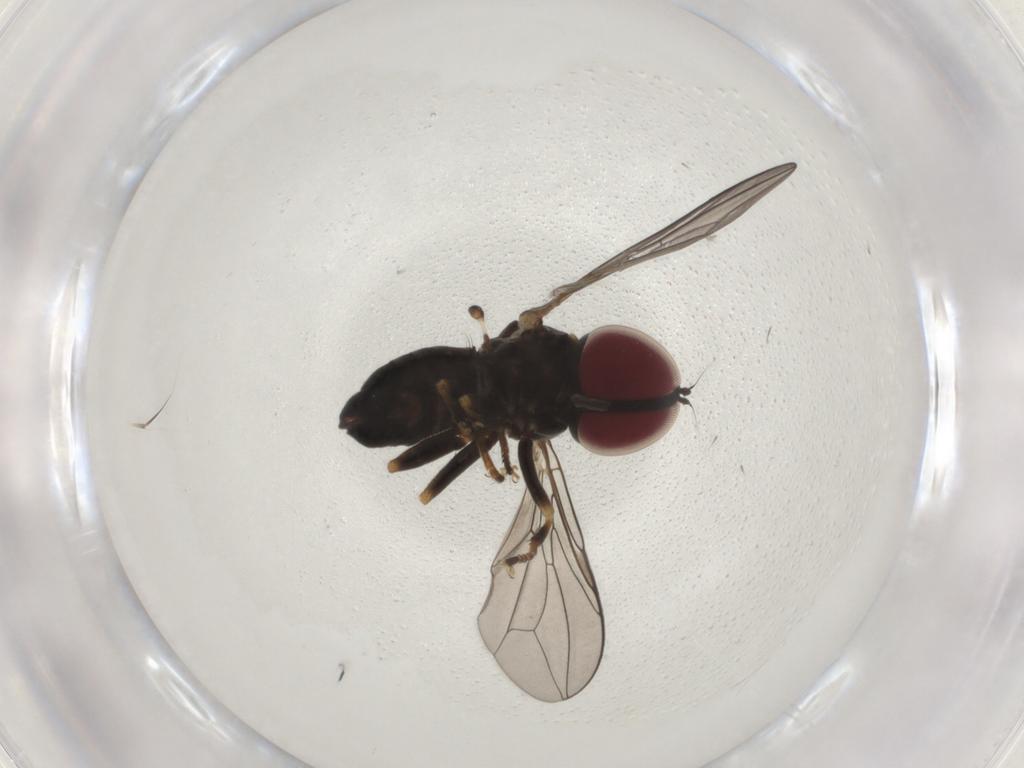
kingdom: Animalia
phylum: Arthropoda
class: Insecta
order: Diptera
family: Pipunculidae
